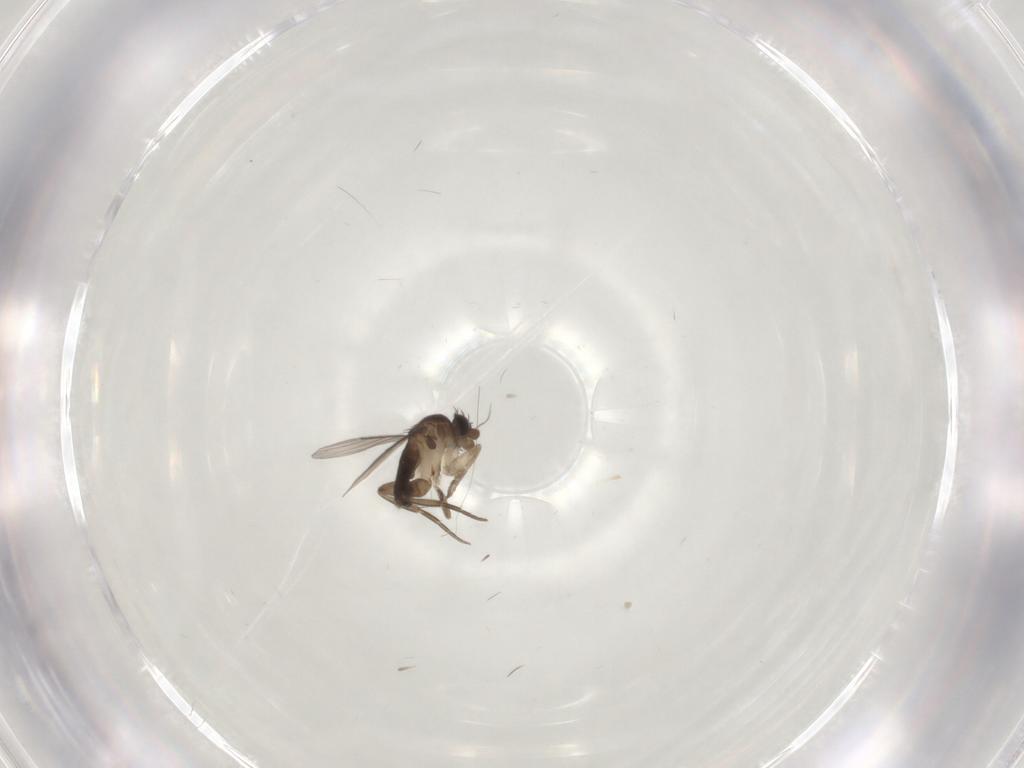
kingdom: Animalia
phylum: Arthropoda
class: Insecta
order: Diptera
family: Phoridae
